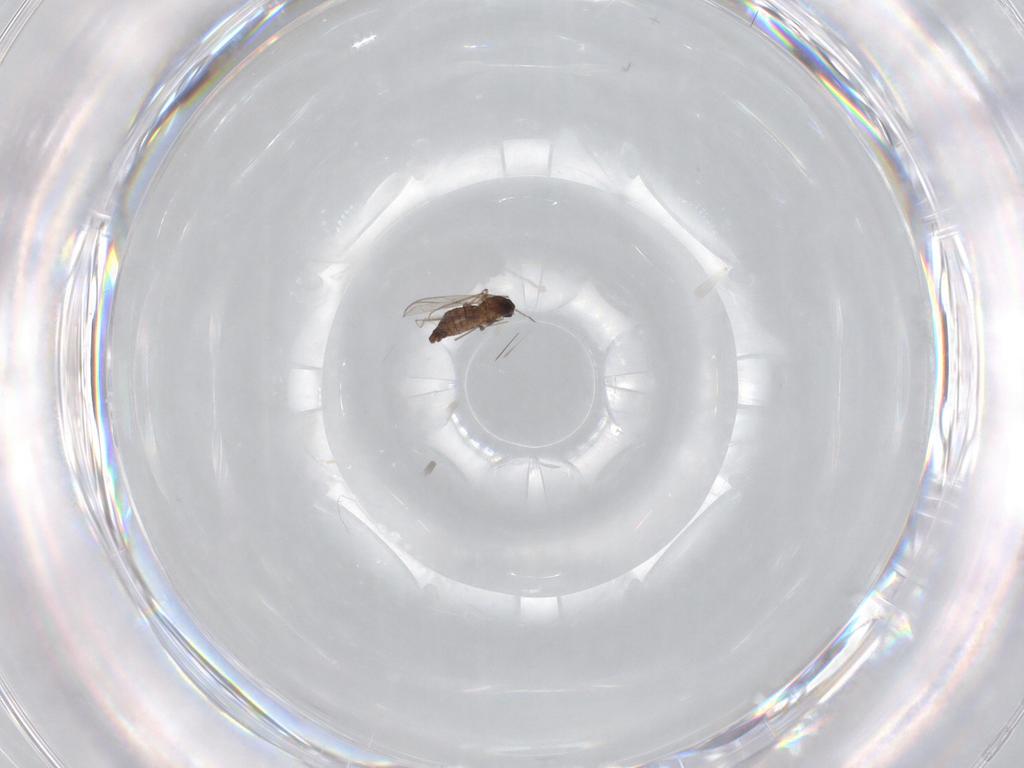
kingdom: Animalia
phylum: Arthropoda
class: Insecta
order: Diptera
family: Chironomidae
